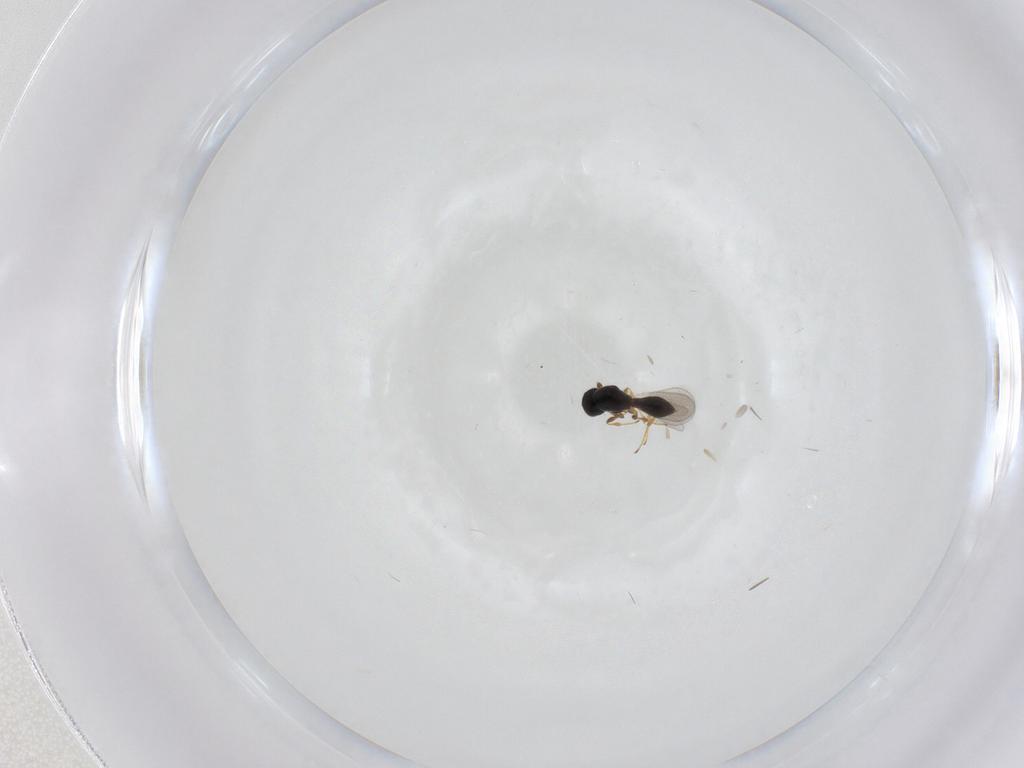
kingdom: Animalia
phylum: Arthropoda
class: Insecta
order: Hymenoptera
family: Platygastridae
